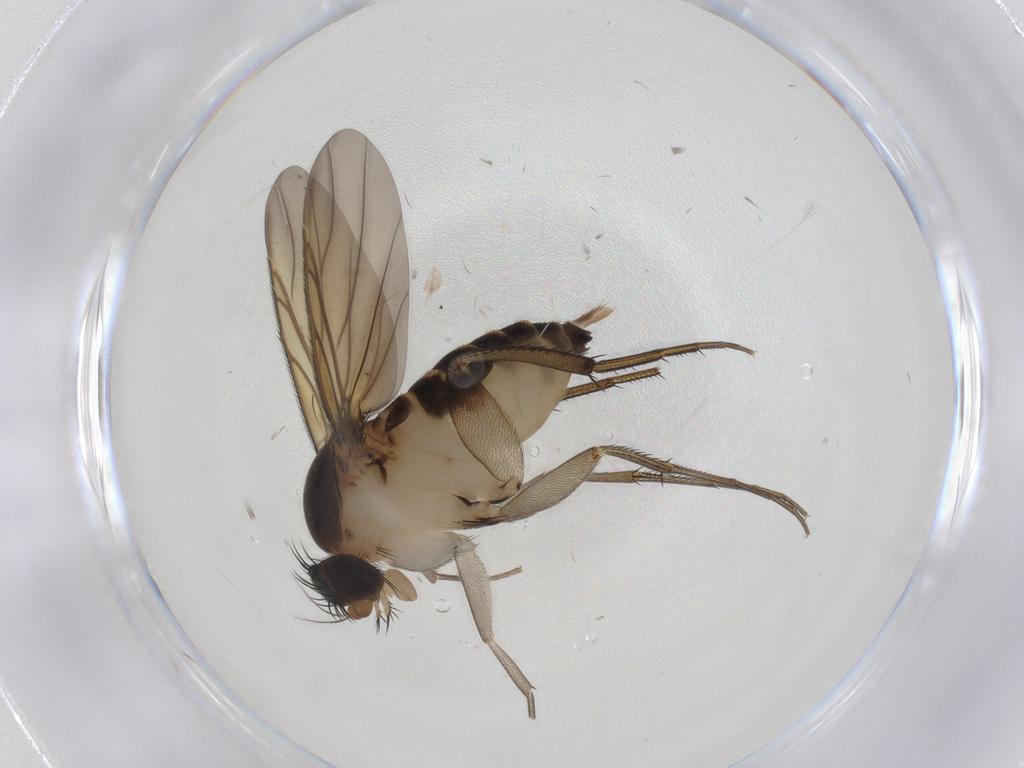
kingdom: Animalia
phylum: Arthropoda
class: Insecta
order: Diptera
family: Phoridae
